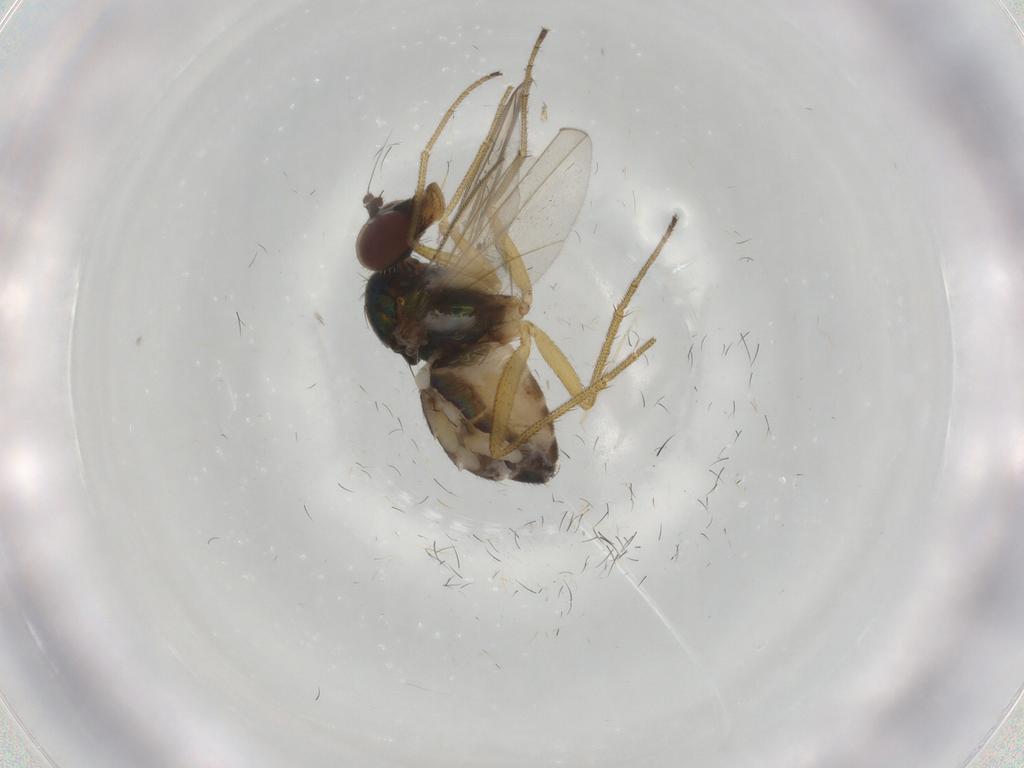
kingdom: Animalia
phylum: Arthropoda
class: Insecta
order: Diptera
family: Dolichopodidae
